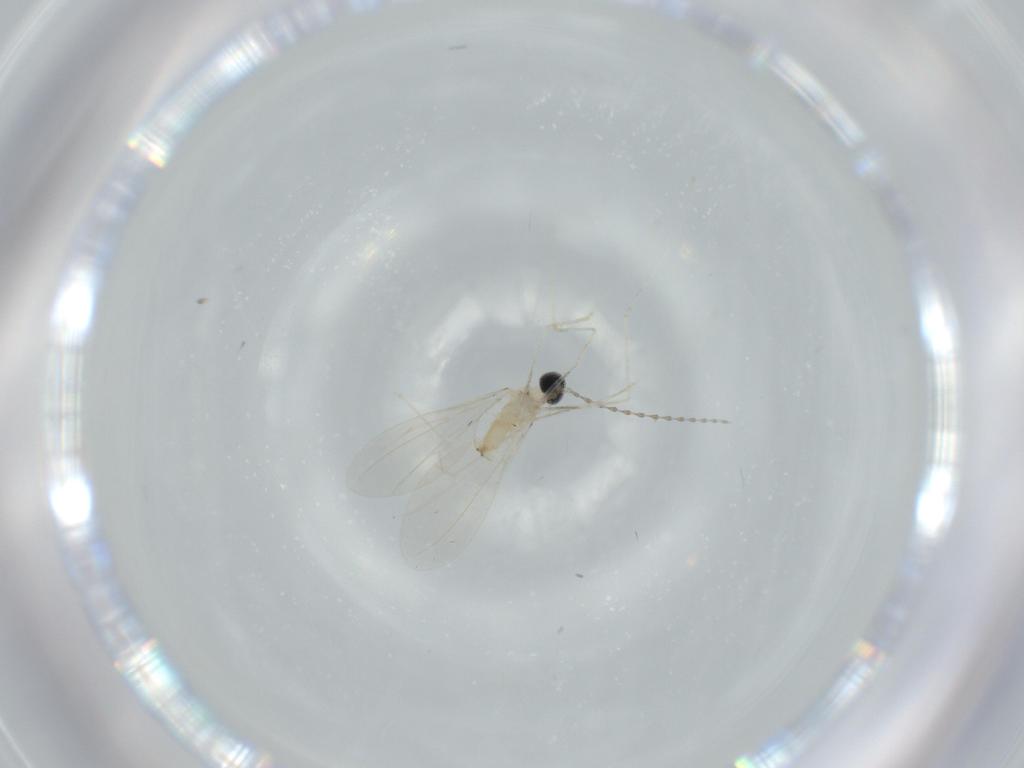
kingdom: Animalia
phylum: Arthropoda
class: Insecta
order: Diptera
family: Cecidomyiidae
